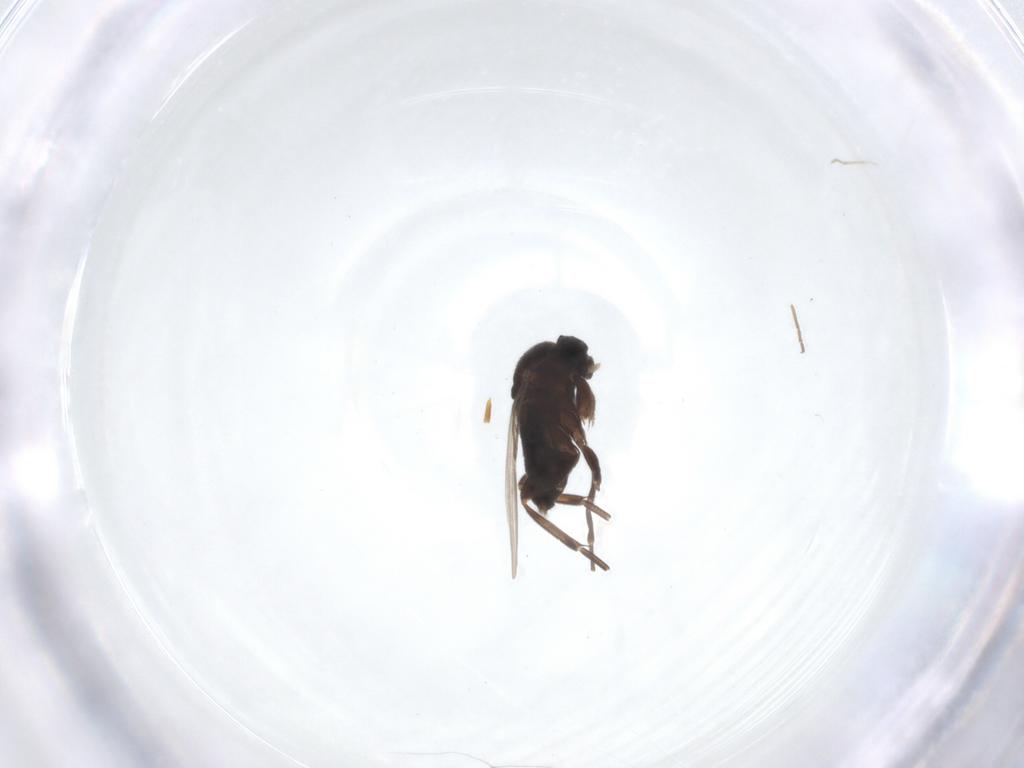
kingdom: Animalia
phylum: Arthropoda
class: Insecta
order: Diptera
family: Phoridae
